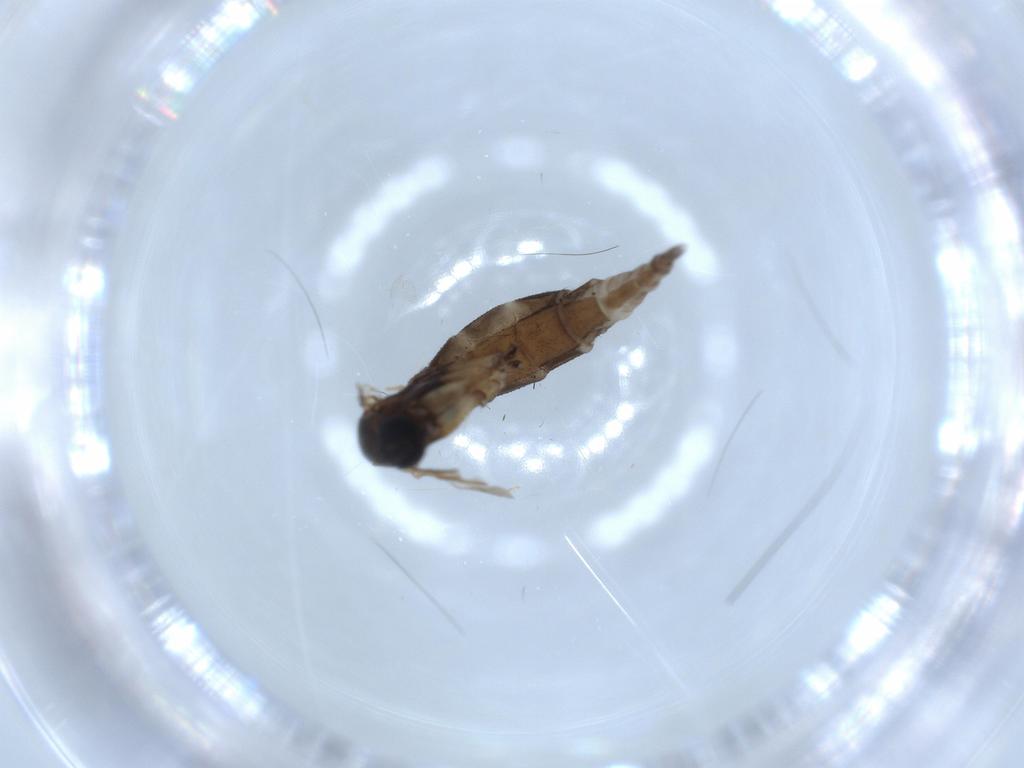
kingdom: Animalia
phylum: Arthropoda
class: Insecta
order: Diptera
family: Sciaridae
